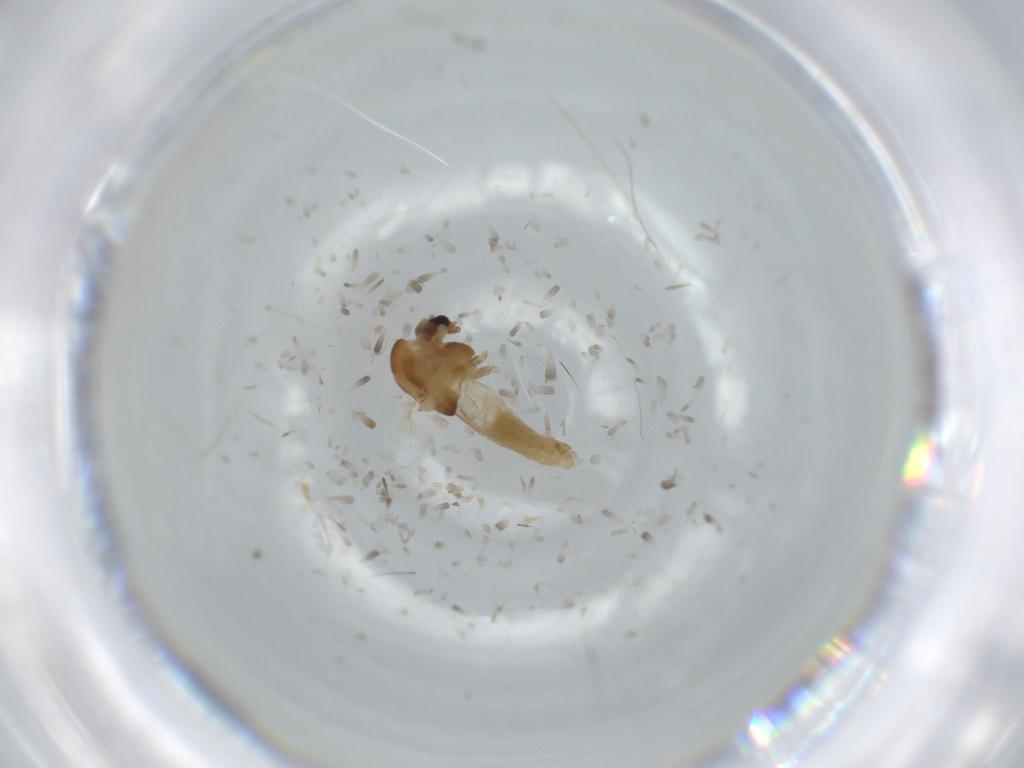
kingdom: Animalia
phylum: Arthropoda
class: Insecta
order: Diptera
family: Chironomidae
